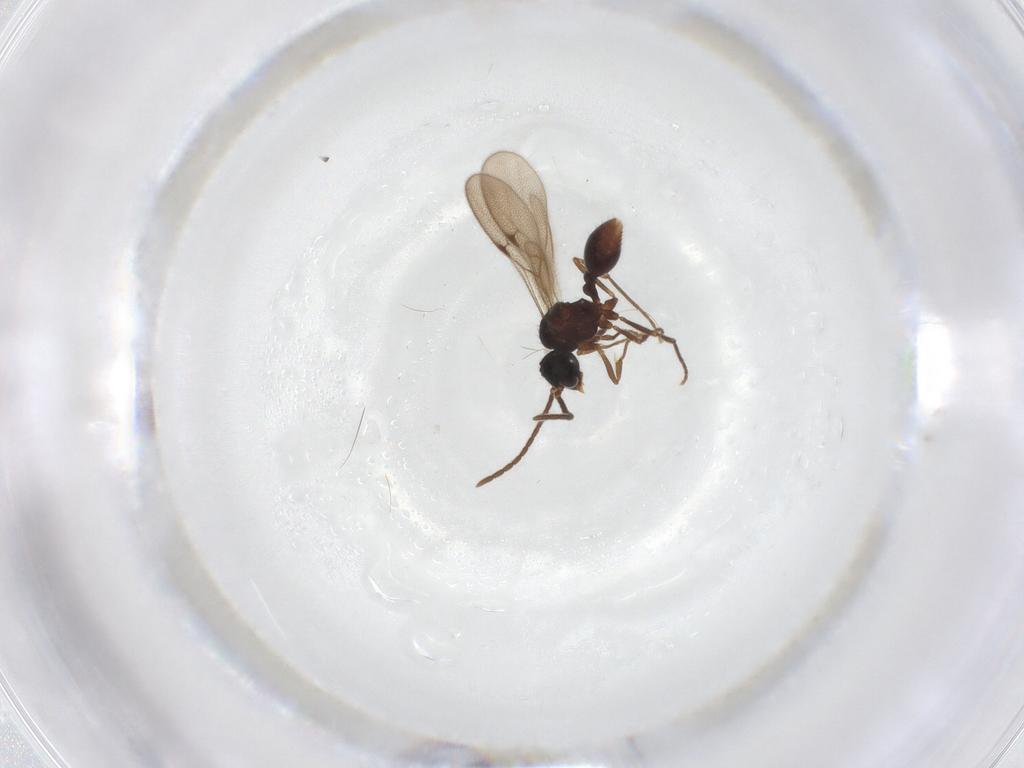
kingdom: Animalia
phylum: Arthropoda
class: Insecta
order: Hymenoptera
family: Formicidae
